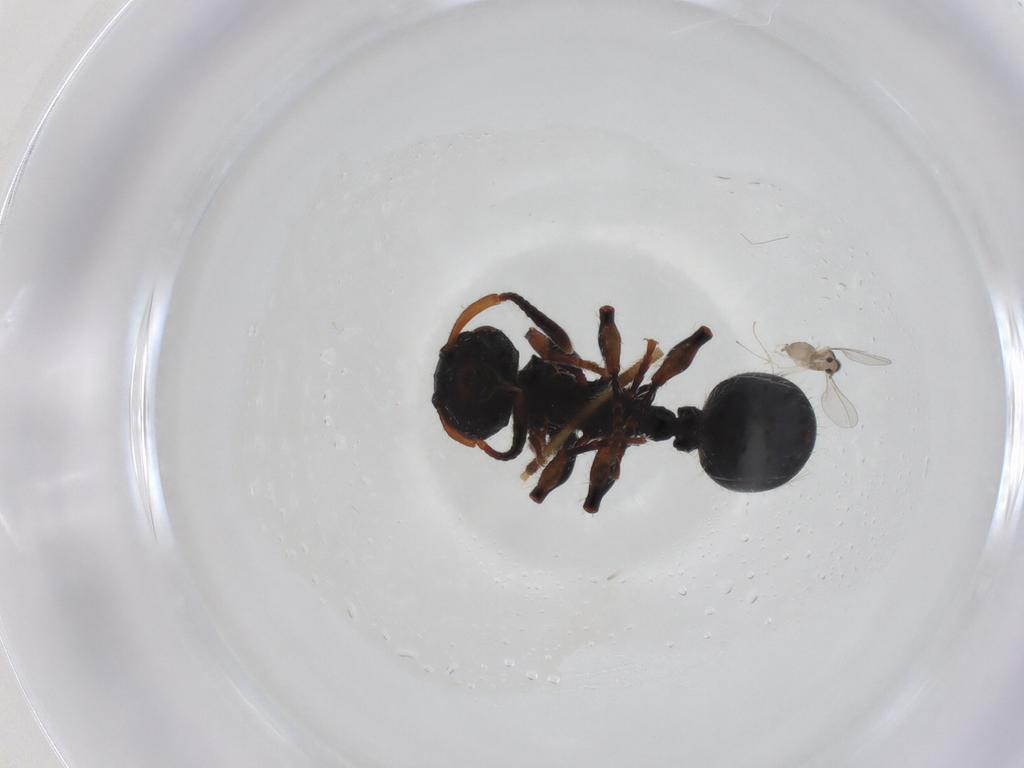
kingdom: Animalia
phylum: Arthropoda
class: Insecta
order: Diptera
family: Cecidomyiidae
